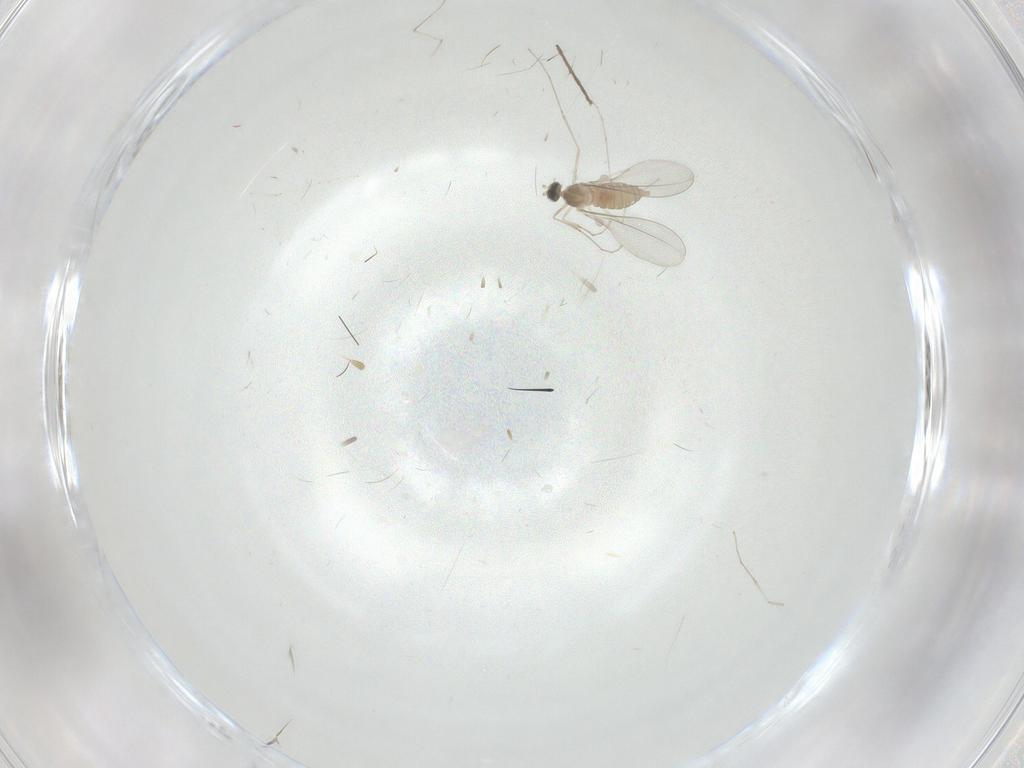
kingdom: Animalia
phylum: Arthropoda
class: Insecta
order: Diptera
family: Cecidomyiidae
